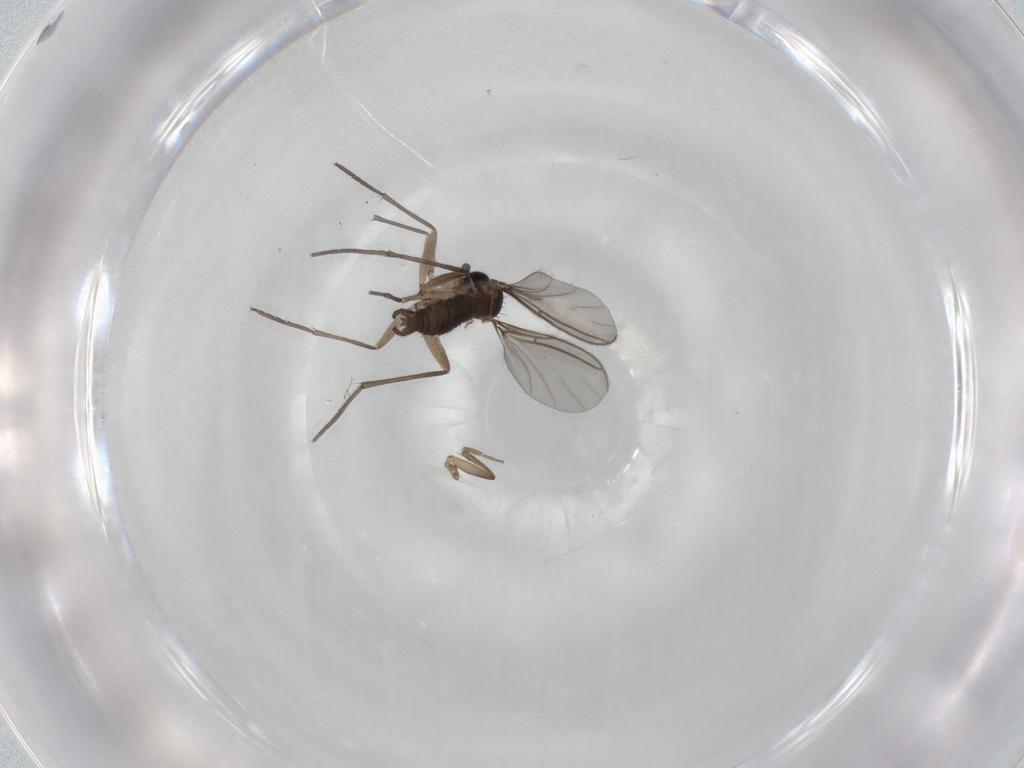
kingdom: Animalia
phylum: Arthropoda
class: Insecta
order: Diptera
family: Sciaridae
